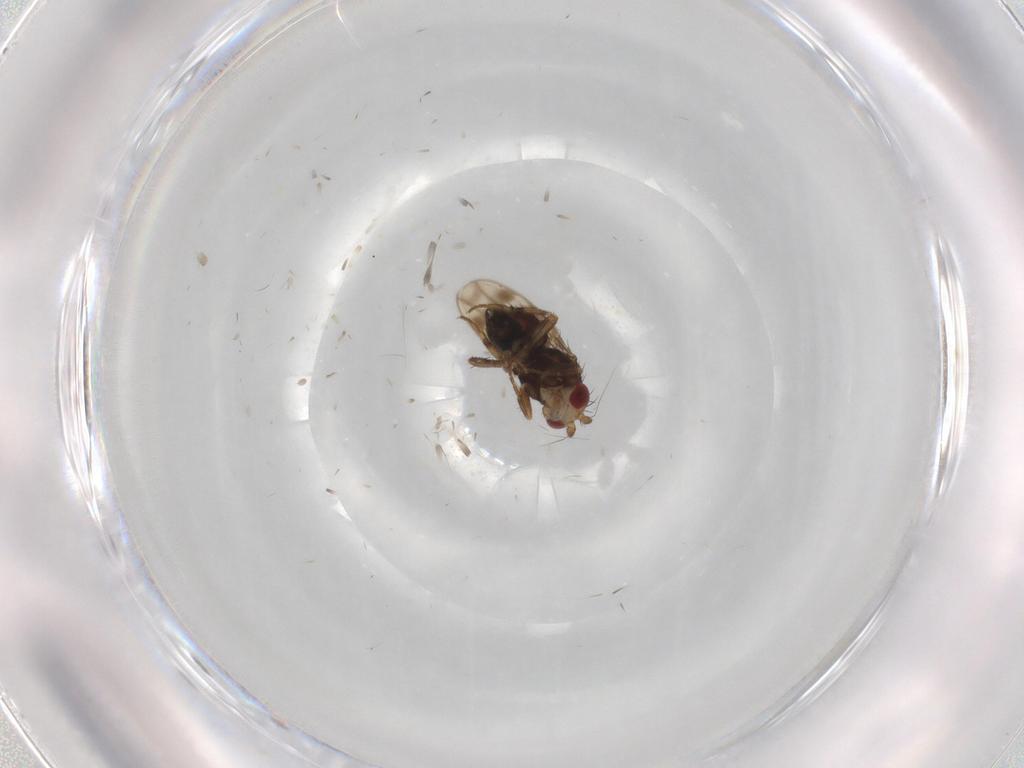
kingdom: Animalia
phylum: Arthropoda
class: Insecta
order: Diptera
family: Sphaeroceridae
